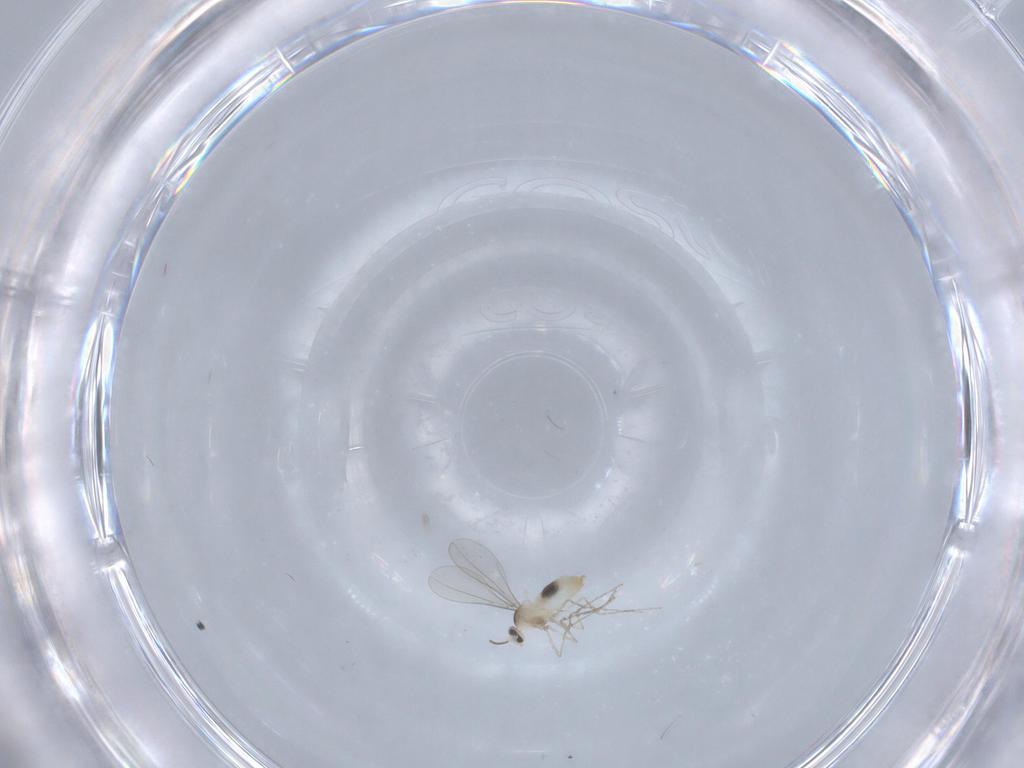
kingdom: Animalia
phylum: Arthropoda
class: Insecta
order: Diptera
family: Cecidomyiidae
